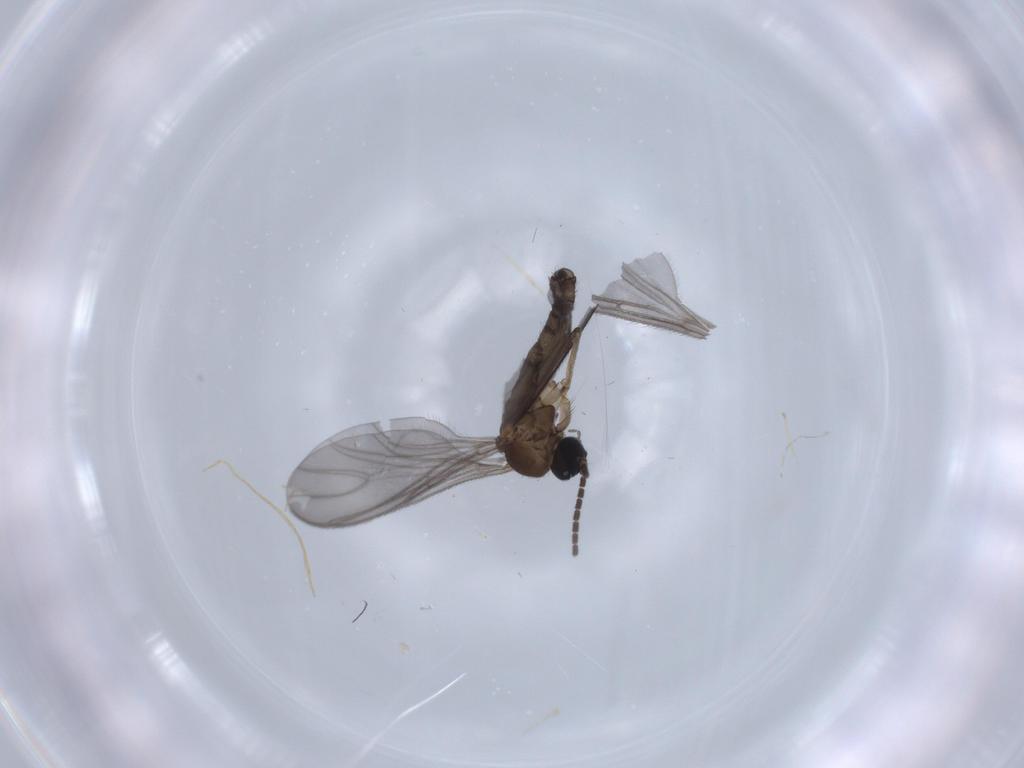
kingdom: Animalia
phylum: Arthropoda
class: Insecta
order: Diptera
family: Sciaridae
